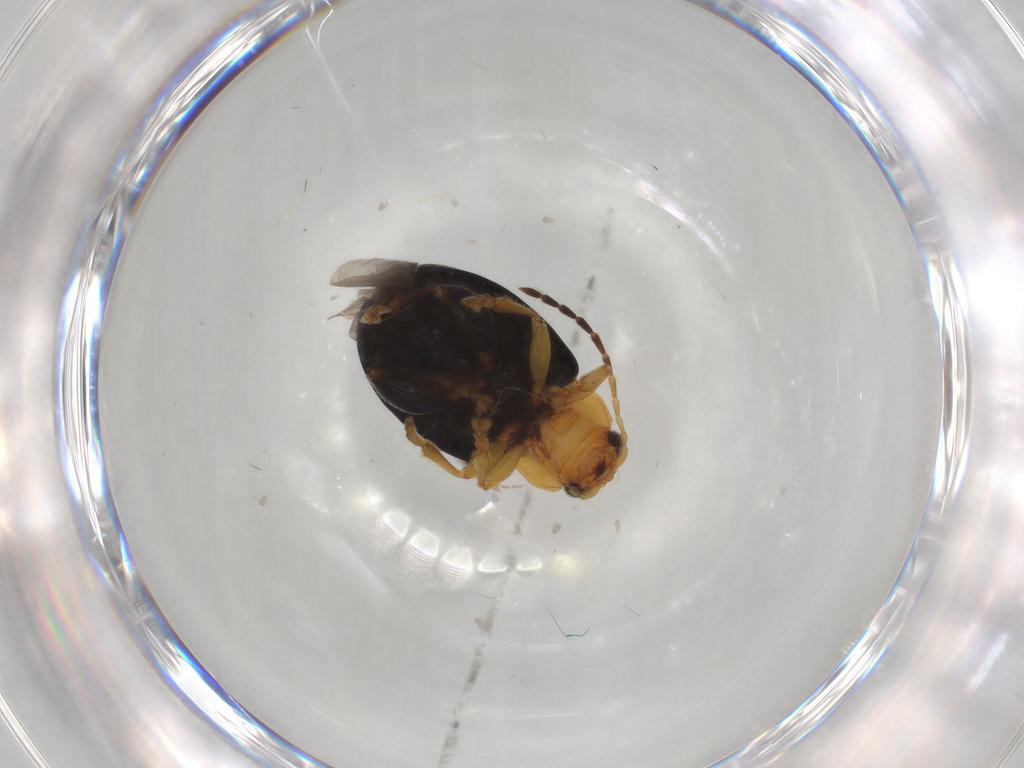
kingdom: Animalia
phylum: Arthropoda
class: Insecta
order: Coleoptera
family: Chrysomelidae
